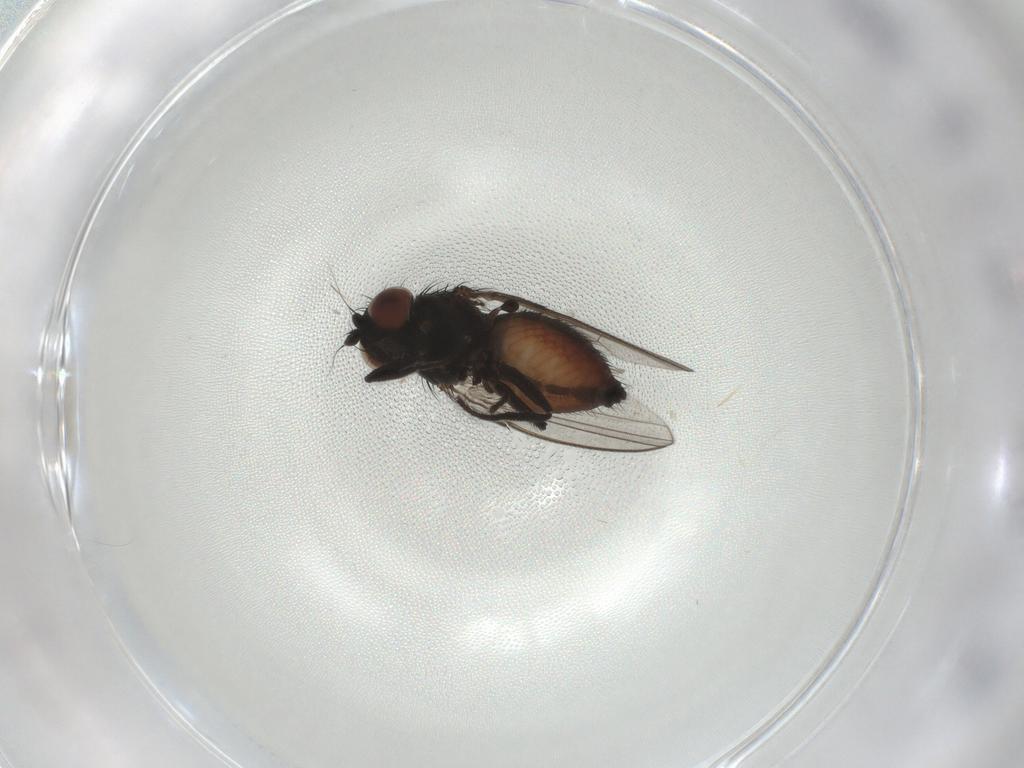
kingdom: Animalia
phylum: Arthropoda
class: Insecta
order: Diptera
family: Milichiidae
